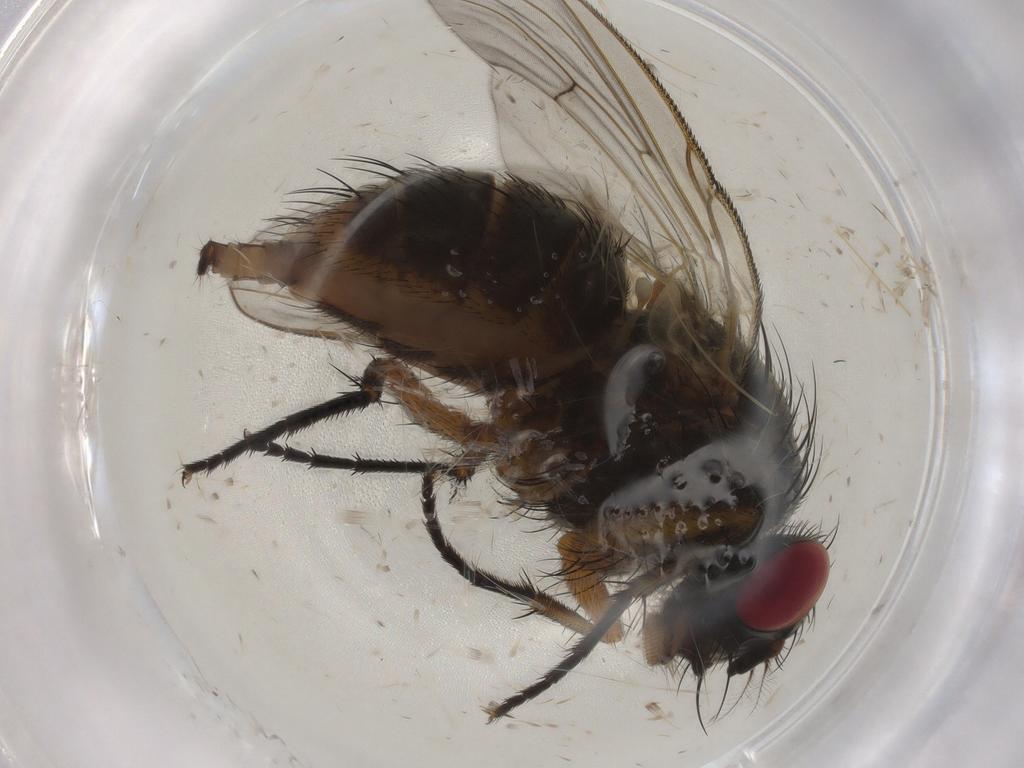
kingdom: Animalia
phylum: Arthropoda
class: Insecta
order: Diptera
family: Muscidae
